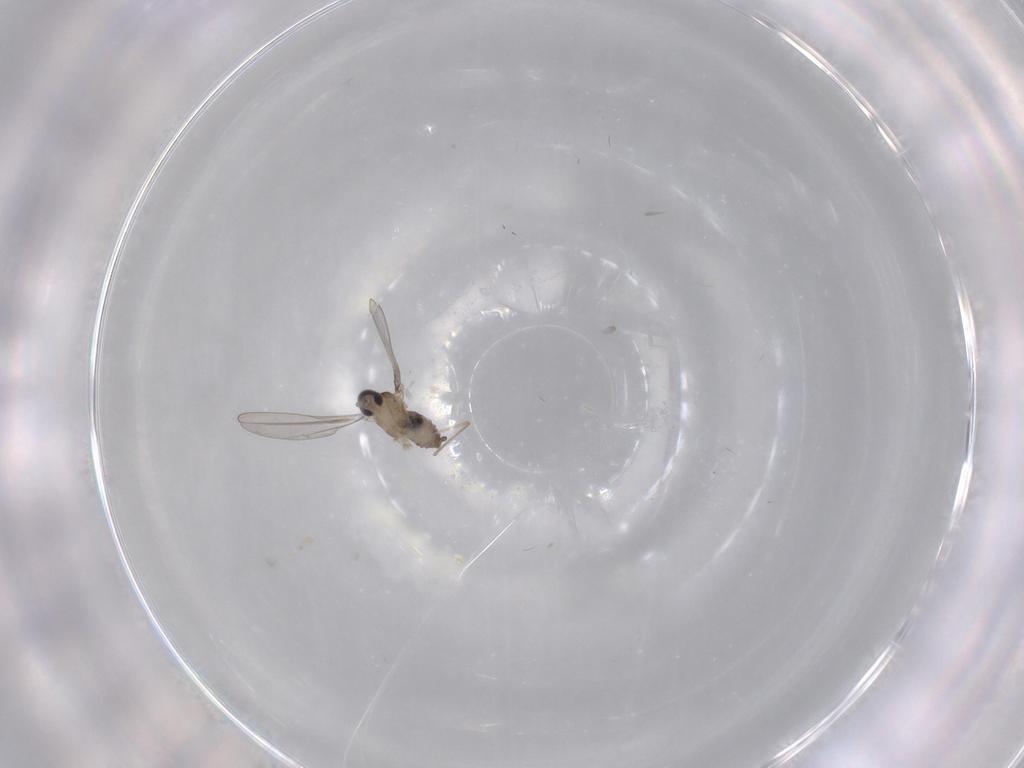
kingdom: Animalia
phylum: Arthropoda
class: Insecta
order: Diptera
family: Cecidomyiidae
